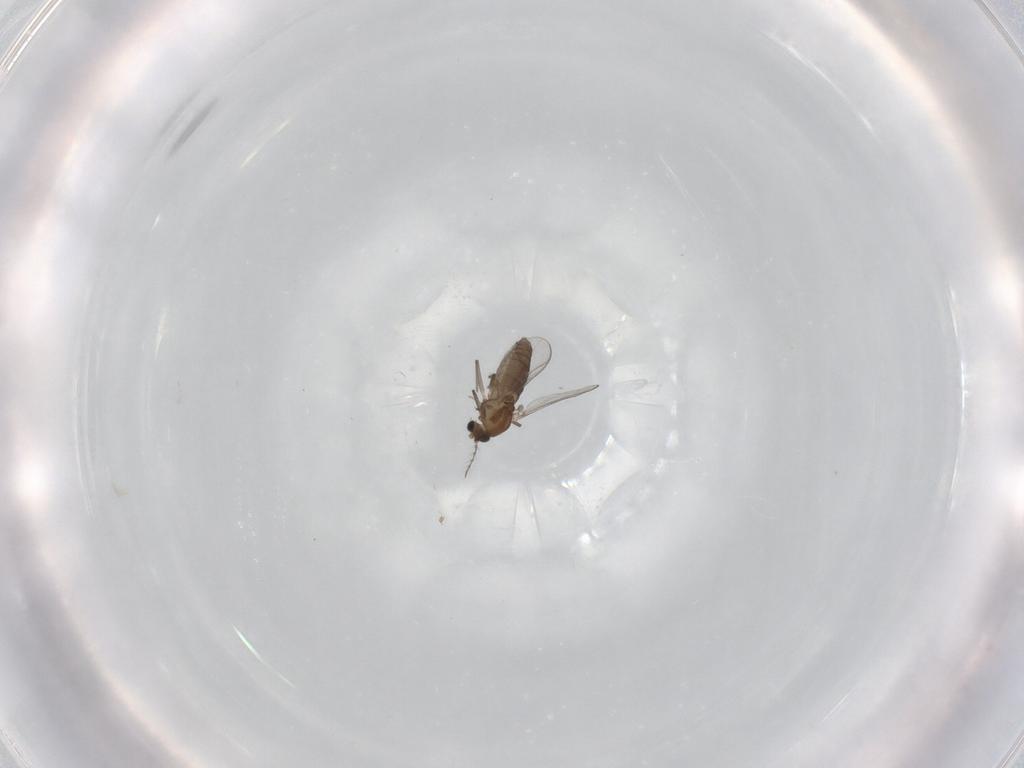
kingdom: Animalia
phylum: Arthropoda
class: Insecta
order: Diptera
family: Chironomidae
